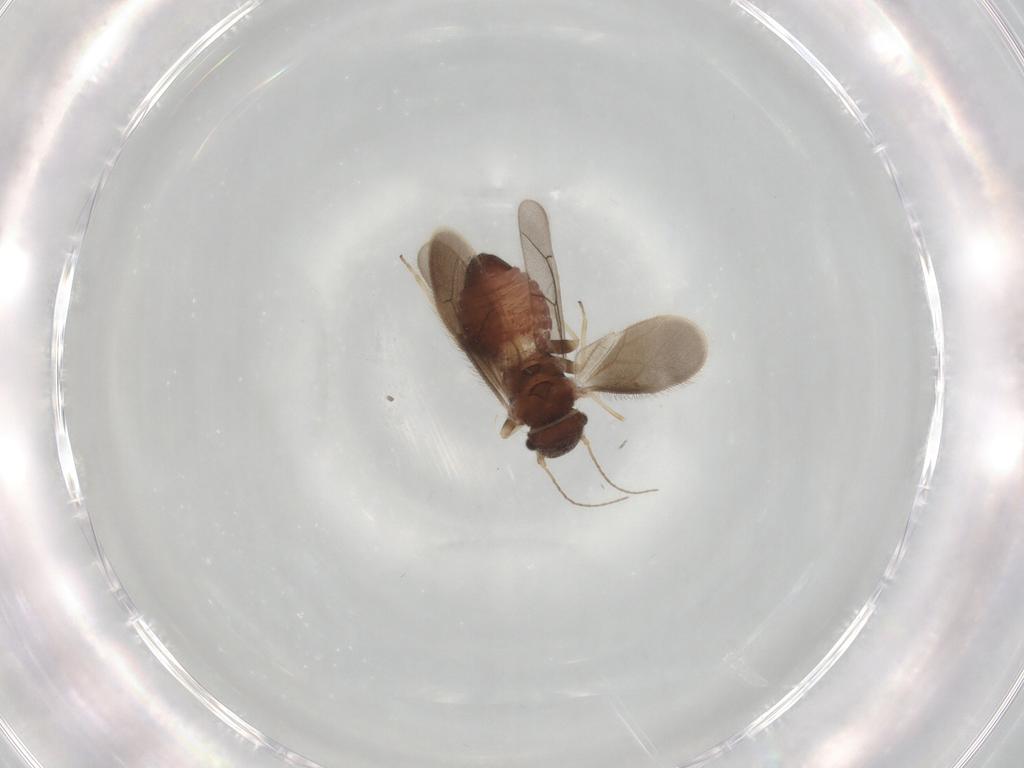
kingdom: Animalia
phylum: Arthropoda
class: Insecta
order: Psocodea
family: Archipsocidae
